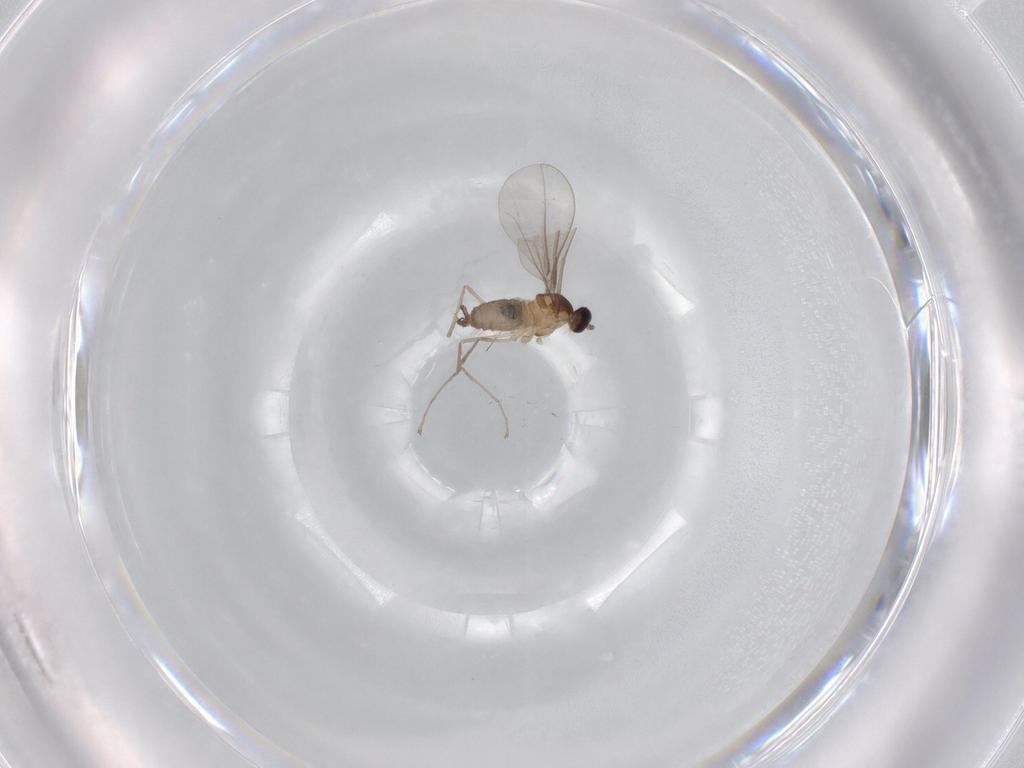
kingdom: Animalia
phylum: Arthropoda
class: Insecta
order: Diptera
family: Cecidomyiidae
